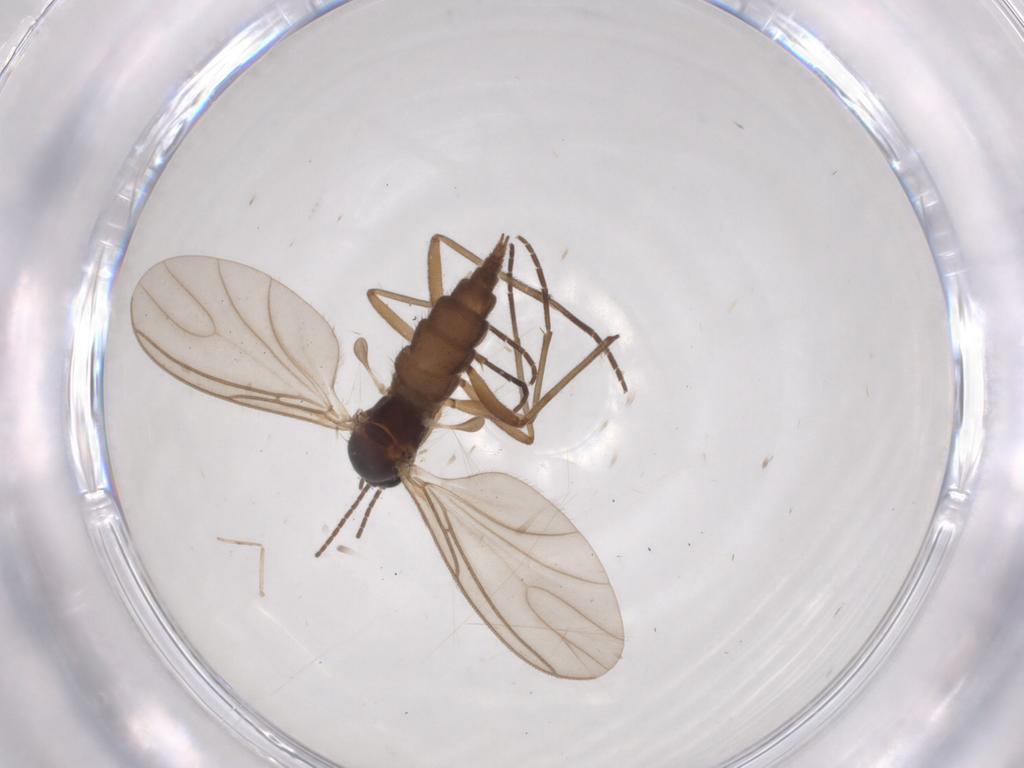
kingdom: Animalia
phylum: Arthropoda
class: Insecta
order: Diptera
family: Sciaridae
